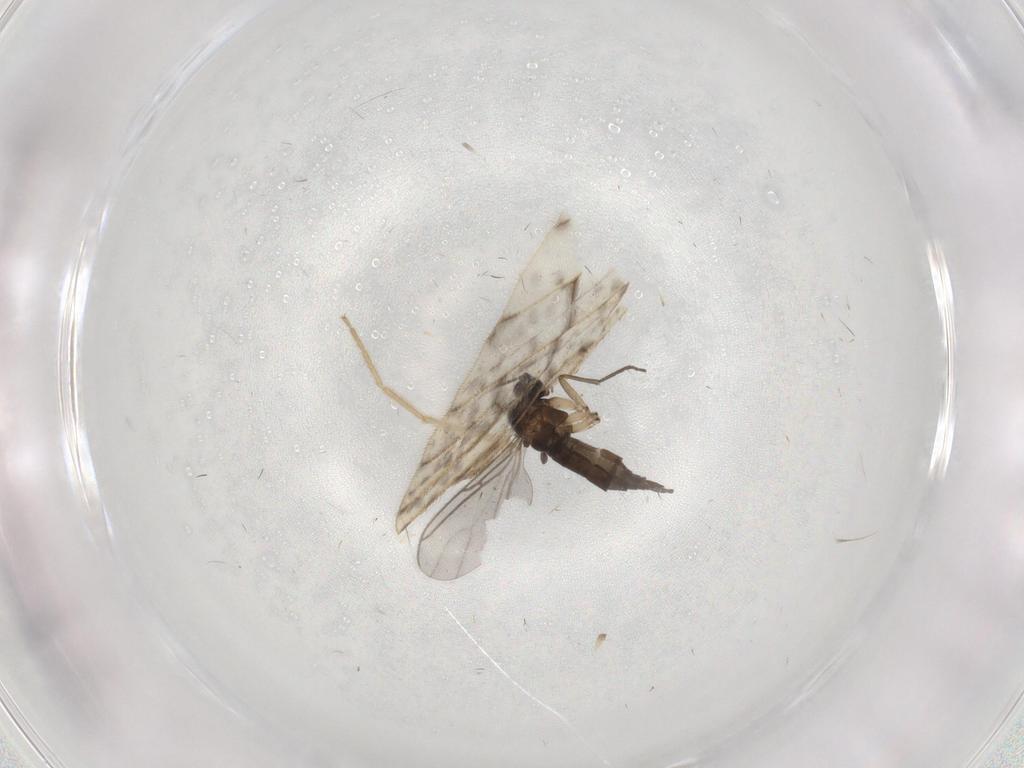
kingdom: Animalia
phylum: Arthropoda
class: Insecta
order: Diptera
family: Sciaridae
